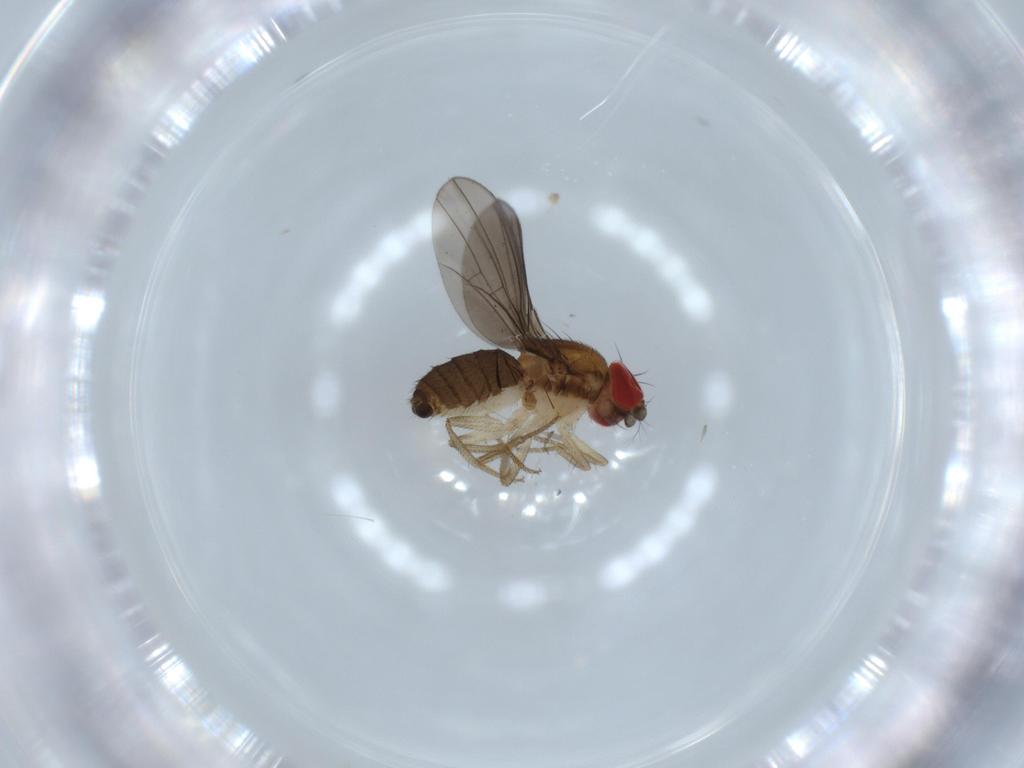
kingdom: Animalia
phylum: Arthropoda
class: Insecta
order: Diptera
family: Drosophilidae
